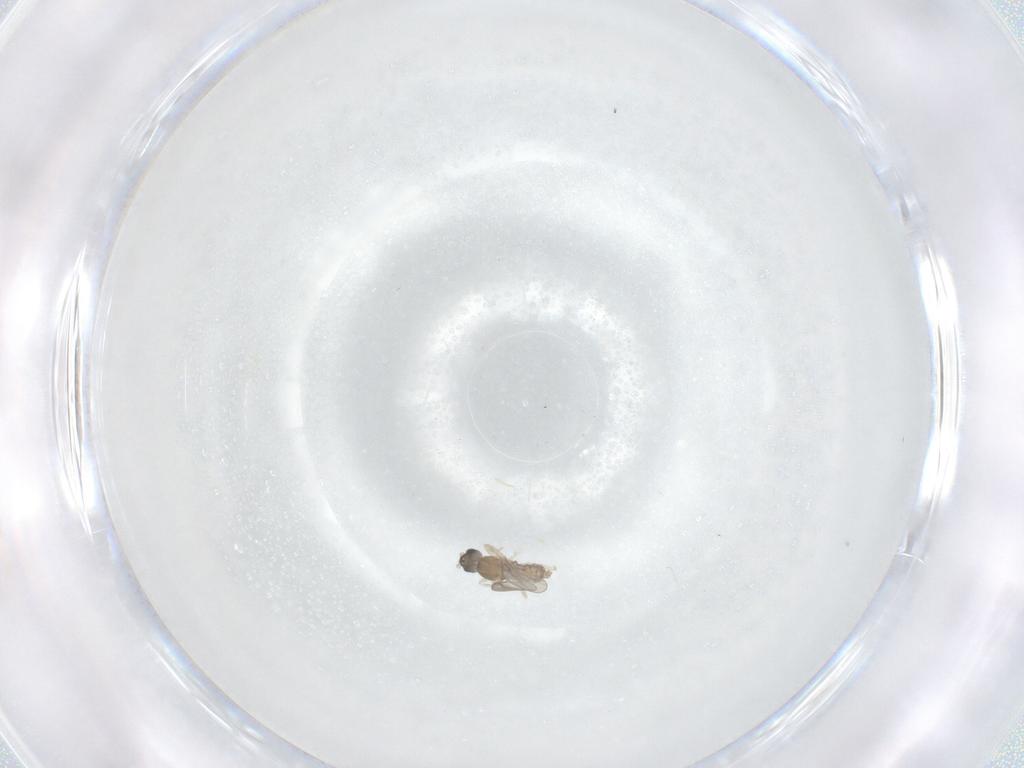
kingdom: Animalia
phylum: Arthropoda
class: Insecta
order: Diptera
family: Cecidomyiidae
